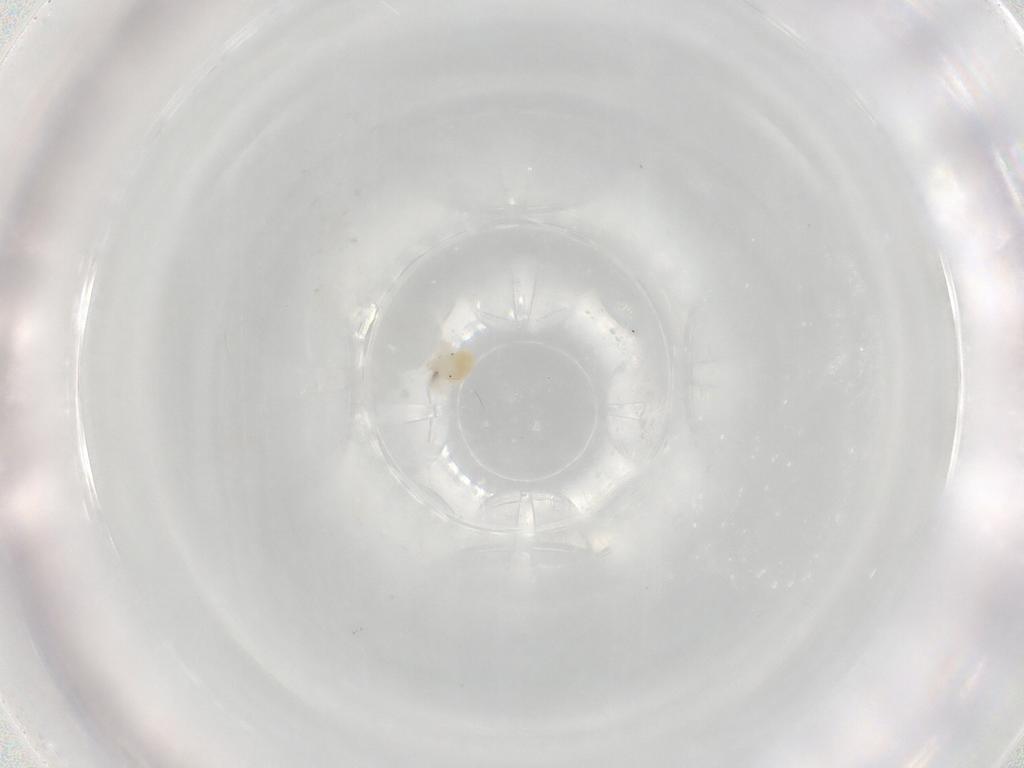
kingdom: Animalia
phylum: Arthropoda
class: Arachnida
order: Trombidiformes
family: Anystidae
